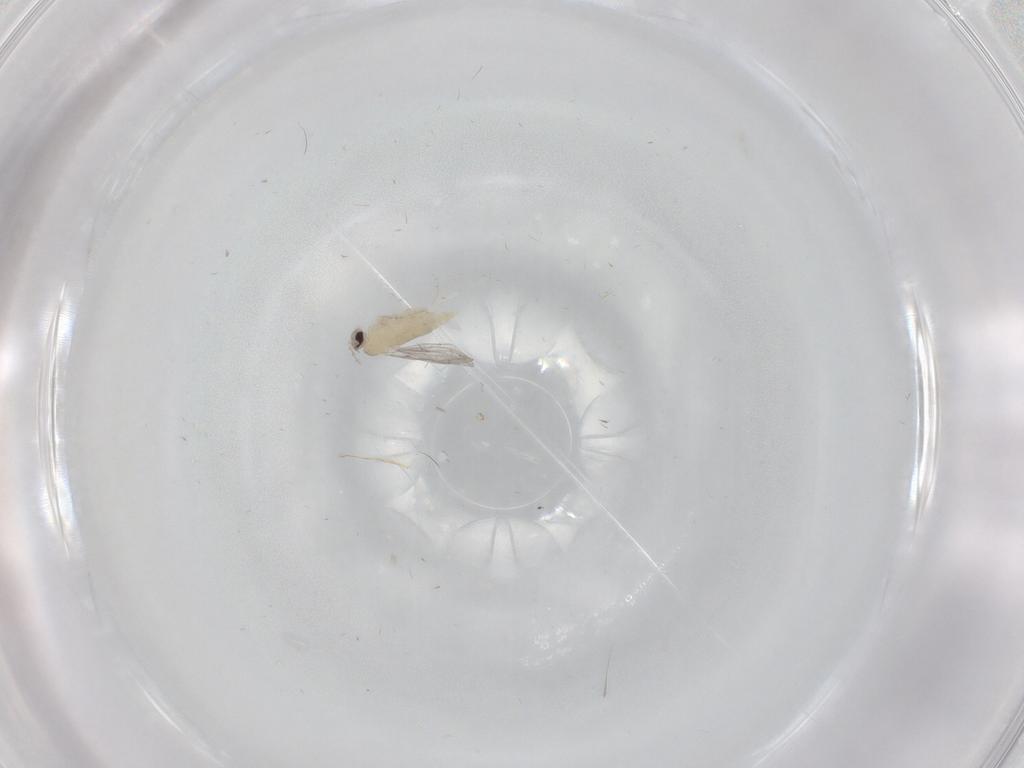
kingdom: Animalia
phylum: Arthropoda
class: Insecta
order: Diptera
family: Cecidomyiidae
